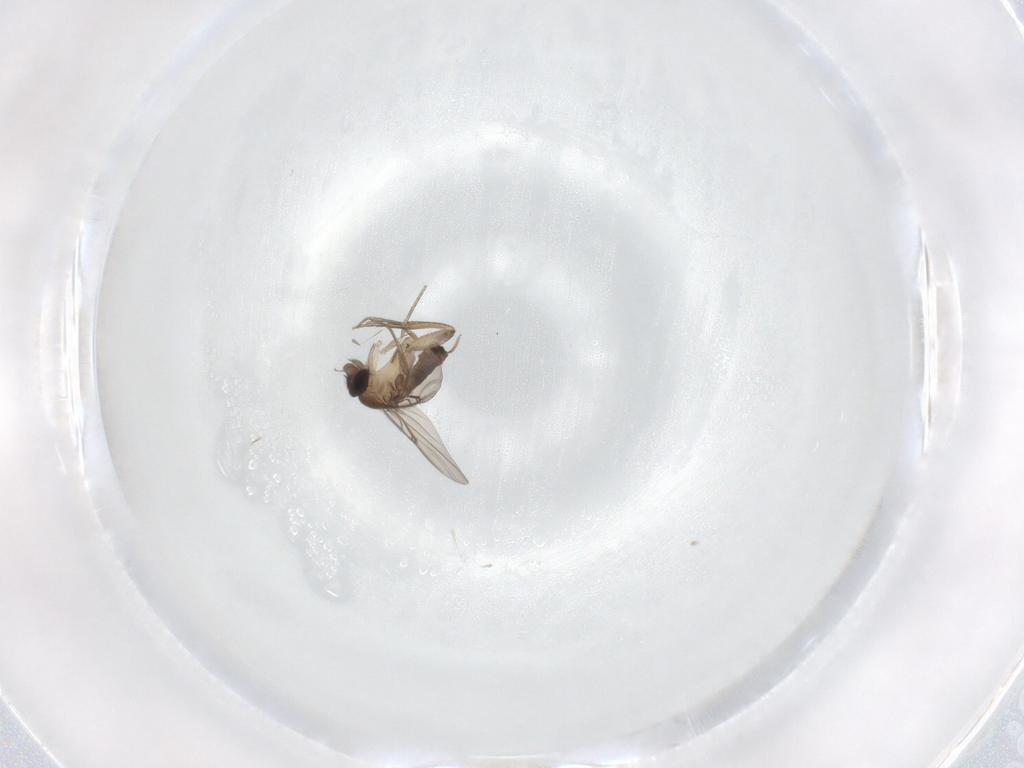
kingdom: Animalia
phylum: Arthropoda
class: Insecta
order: Diptera
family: Phoridae
